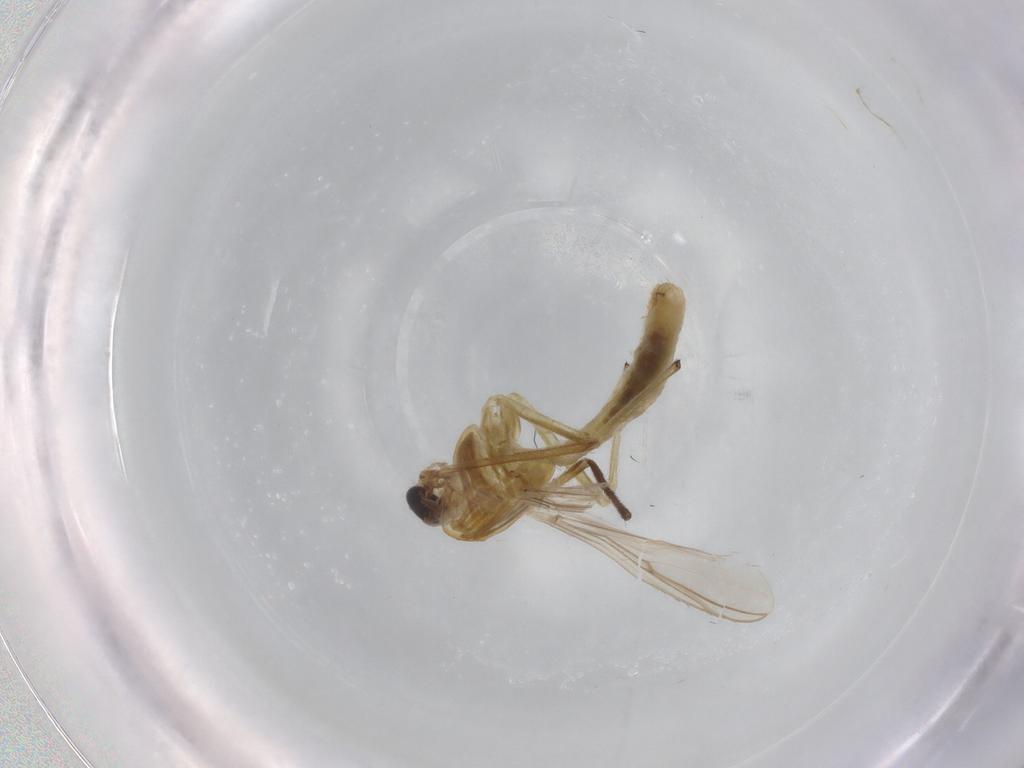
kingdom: Animalia
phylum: Arthropoda
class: Insecta
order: Diptera
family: Chironomidae
